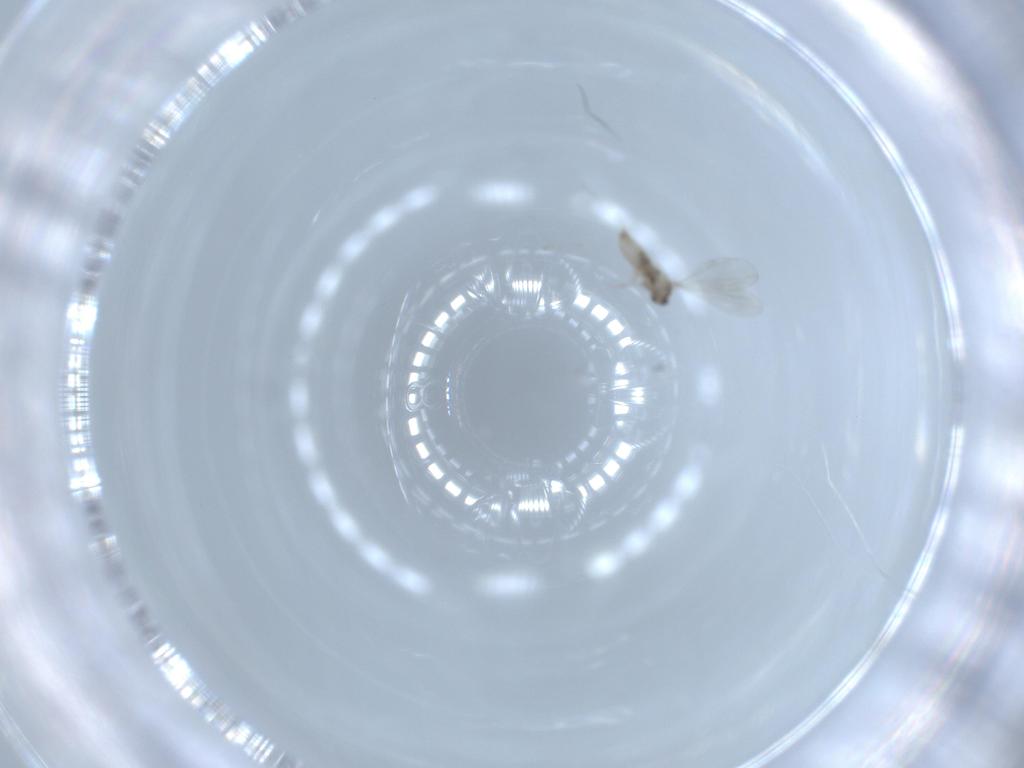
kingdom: Animalia
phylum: Arthropoda
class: Insecta
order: Diptera
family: Cecidomyiidae
